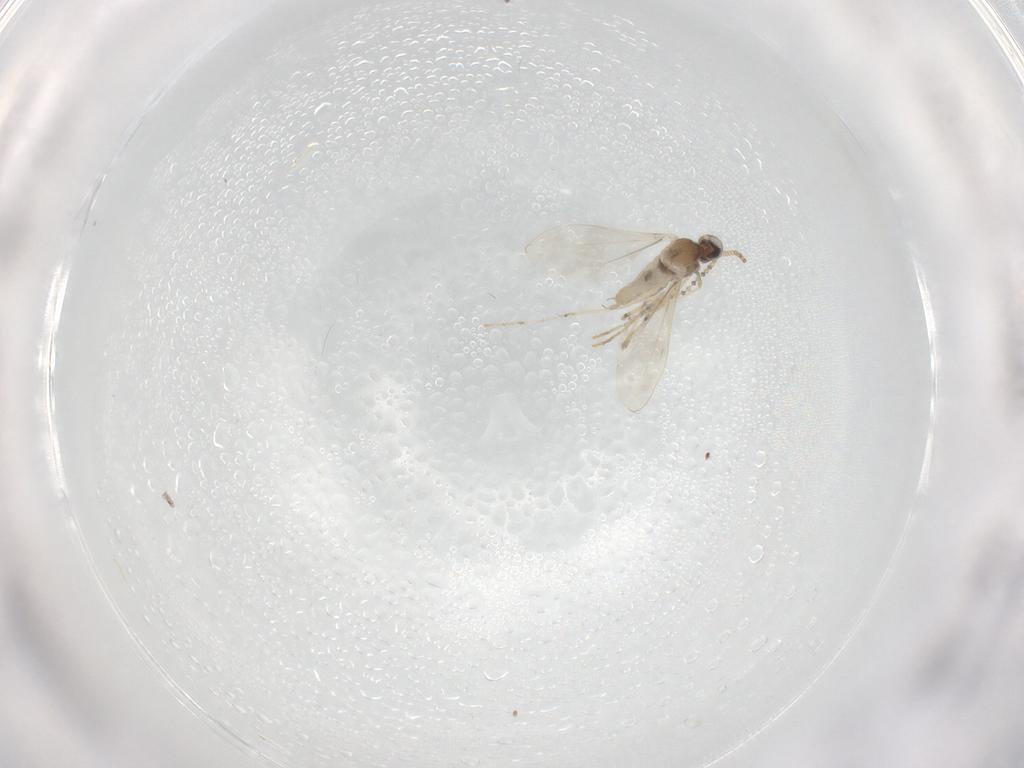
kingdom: Animalia
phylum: Arthropoda
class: Insecta
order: Diptera
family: Cecidomyiidae
